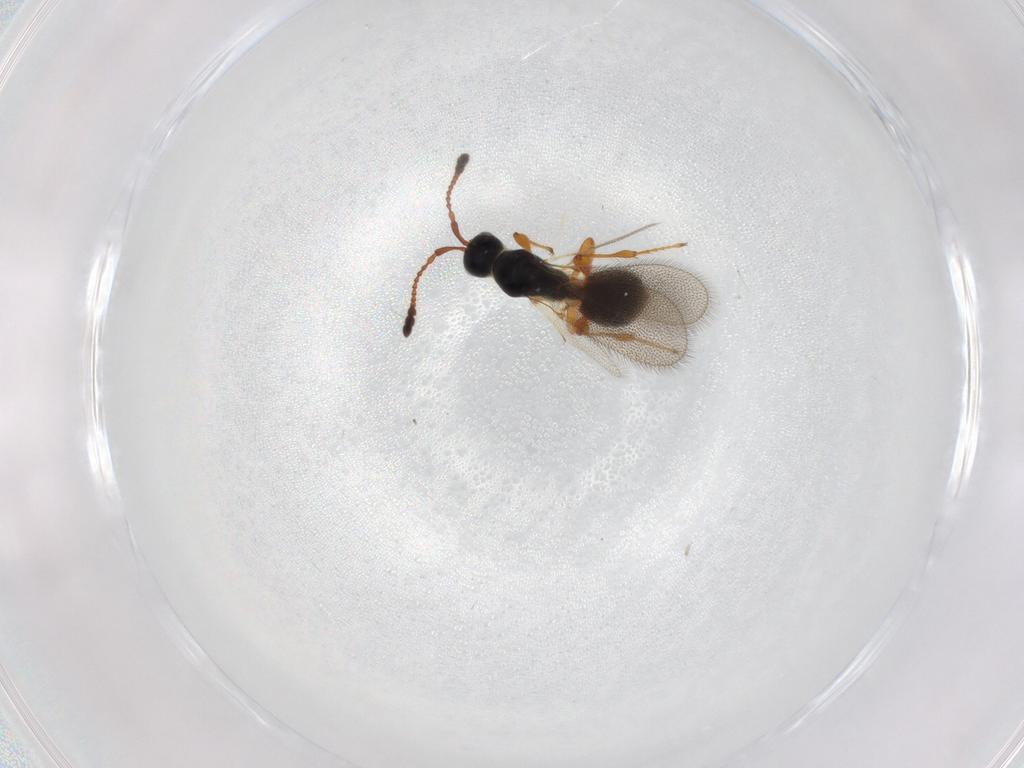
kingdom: Animalia
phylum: Arthropoda
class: Insecta
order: Hymenoptera
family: Diapriidae
